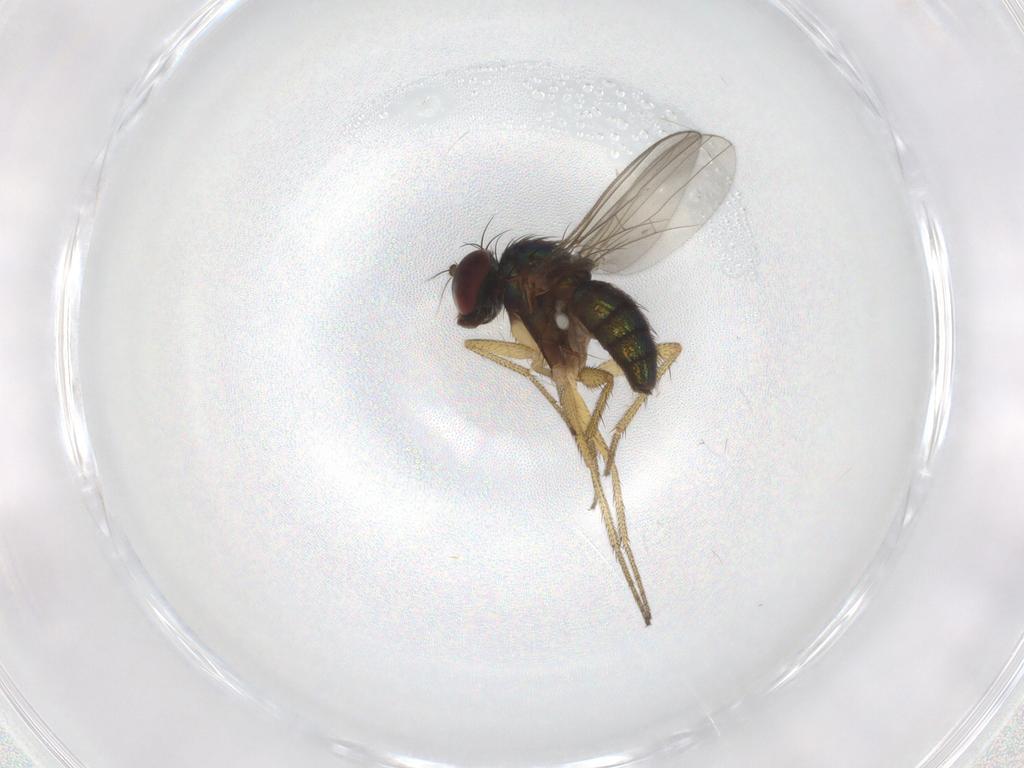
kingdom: Animalia
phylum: Arthropoda
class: Insecta
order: Diptera
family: Dolichopodidae
